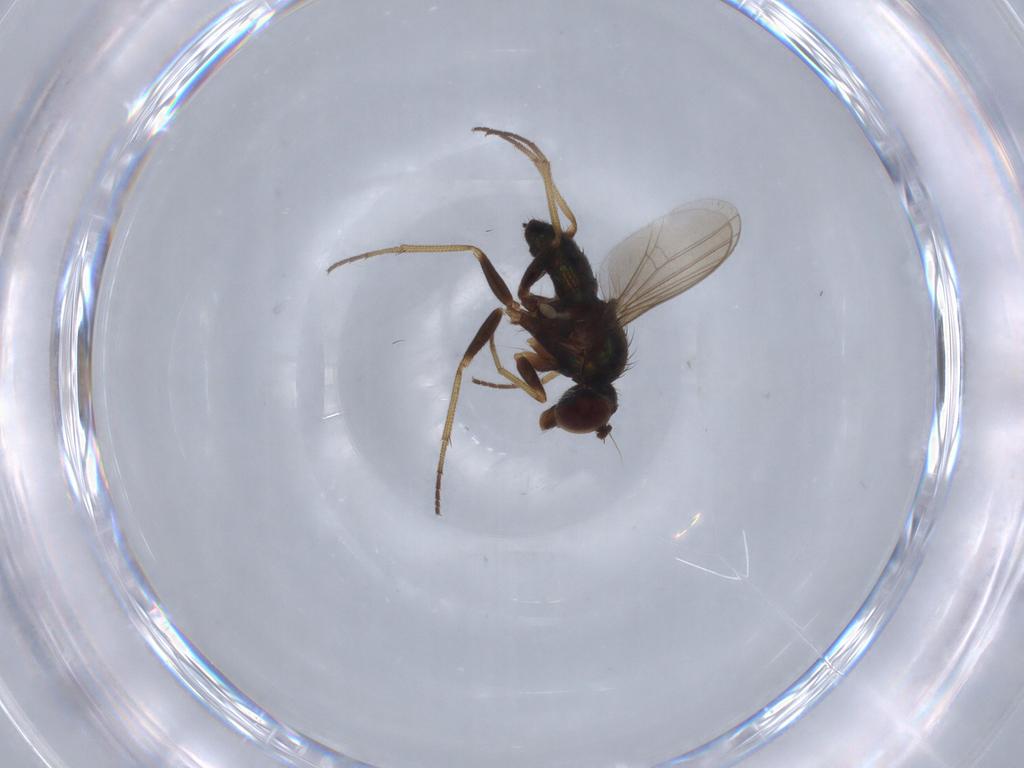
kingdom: Animalia
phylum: Arthropoda
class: Insecta
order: Diptera
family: Dolichopodidae
